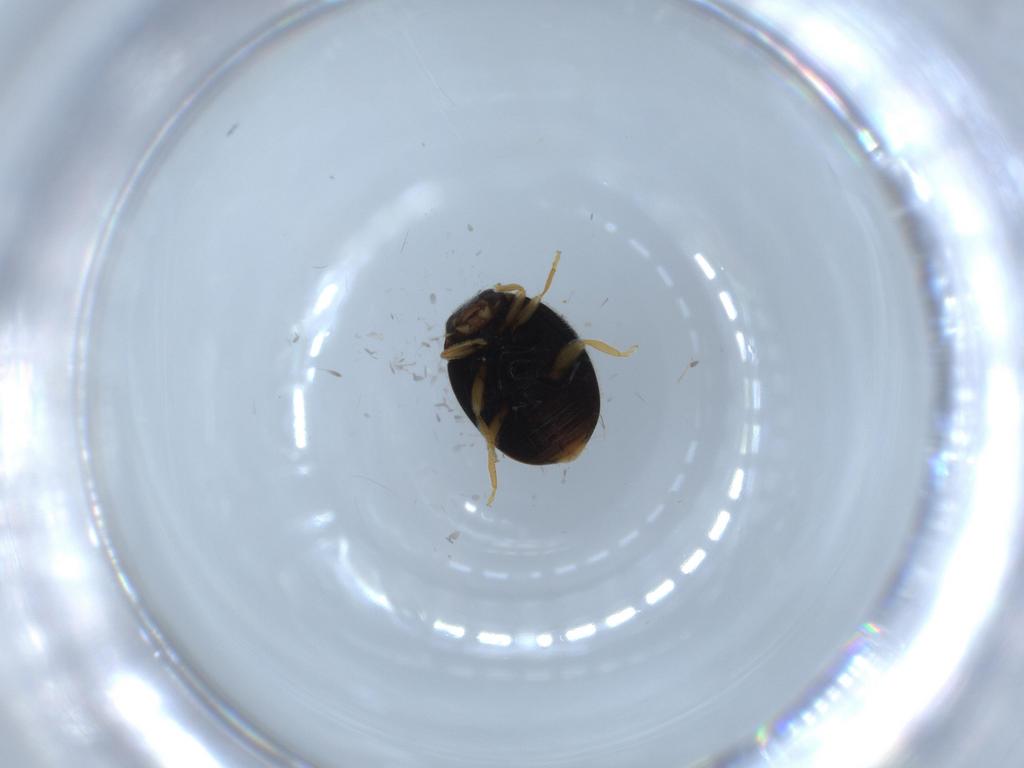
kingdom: Animalia
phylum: Arthropoda
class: Insecta
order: Coleoptera
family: Coccinellidae
